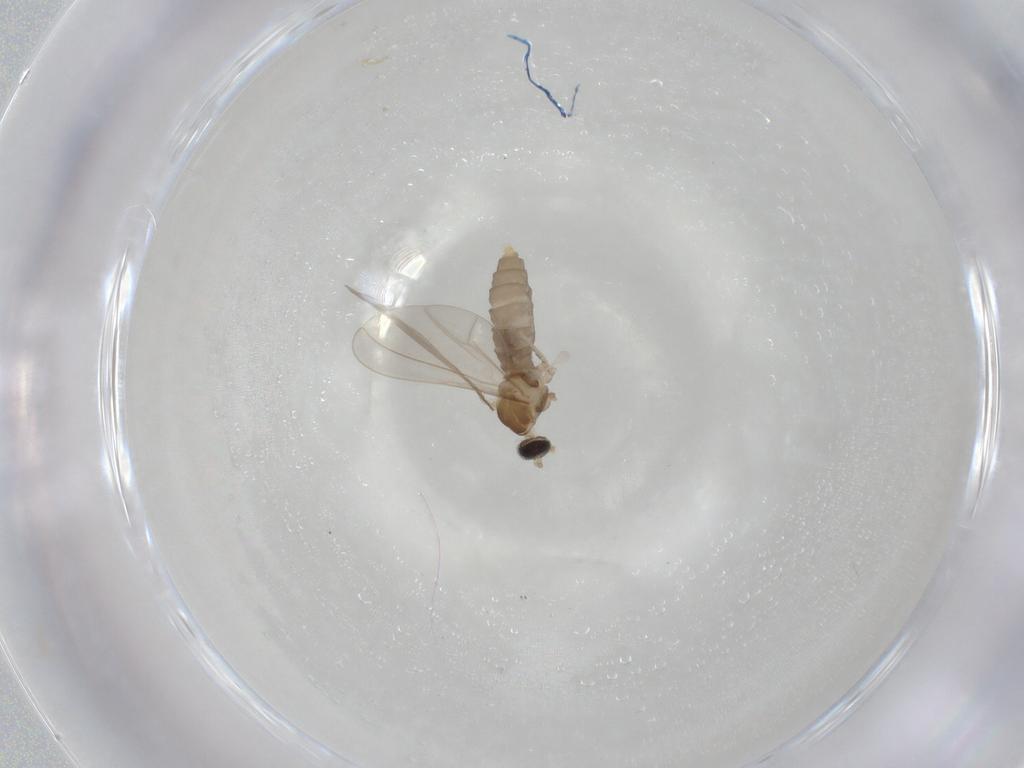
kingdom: Animalia
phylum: Arthropoda
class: Insecta
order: Diptera
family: Cecidomyiidae
